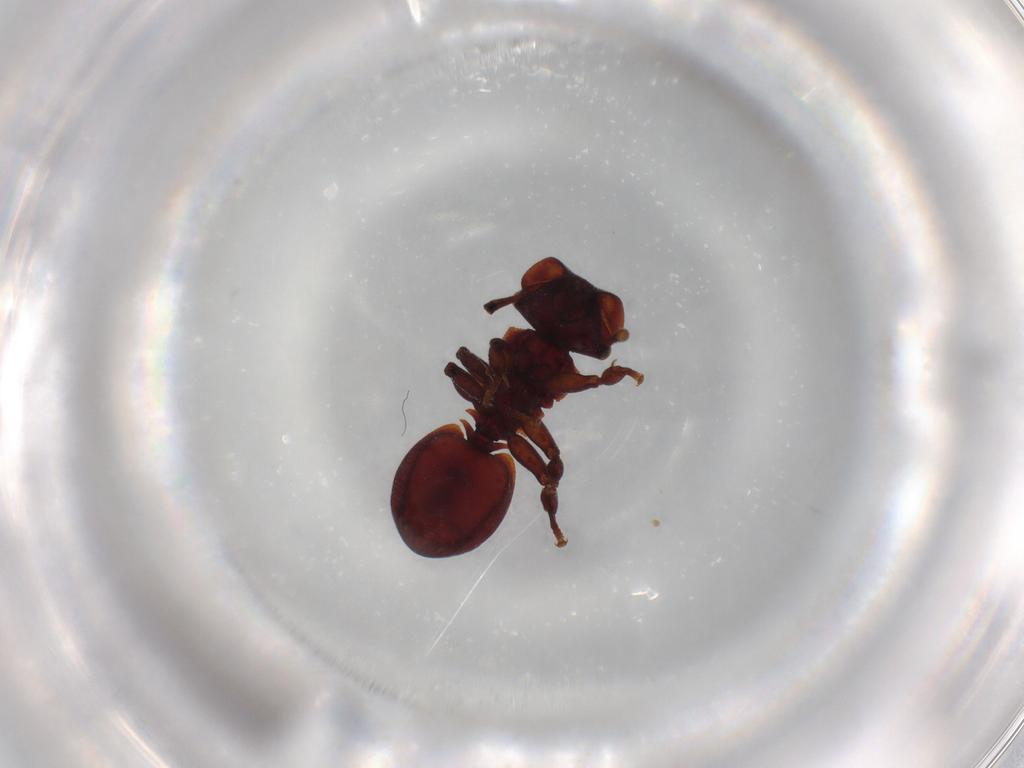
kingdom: Animalia
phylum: Arthropoda
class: Insecta
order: Hymenoptera
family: Formicidae
